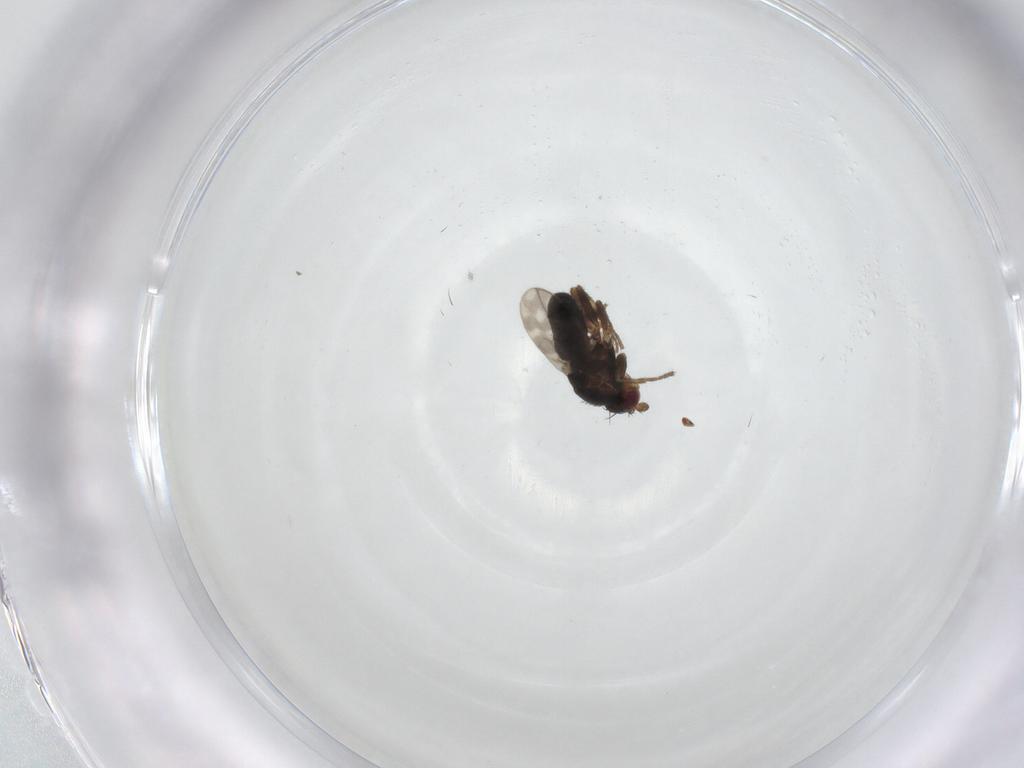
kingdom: Animalia
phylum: Arthropoda
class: Insecta
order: Diptera
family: Sphaeroceridae
